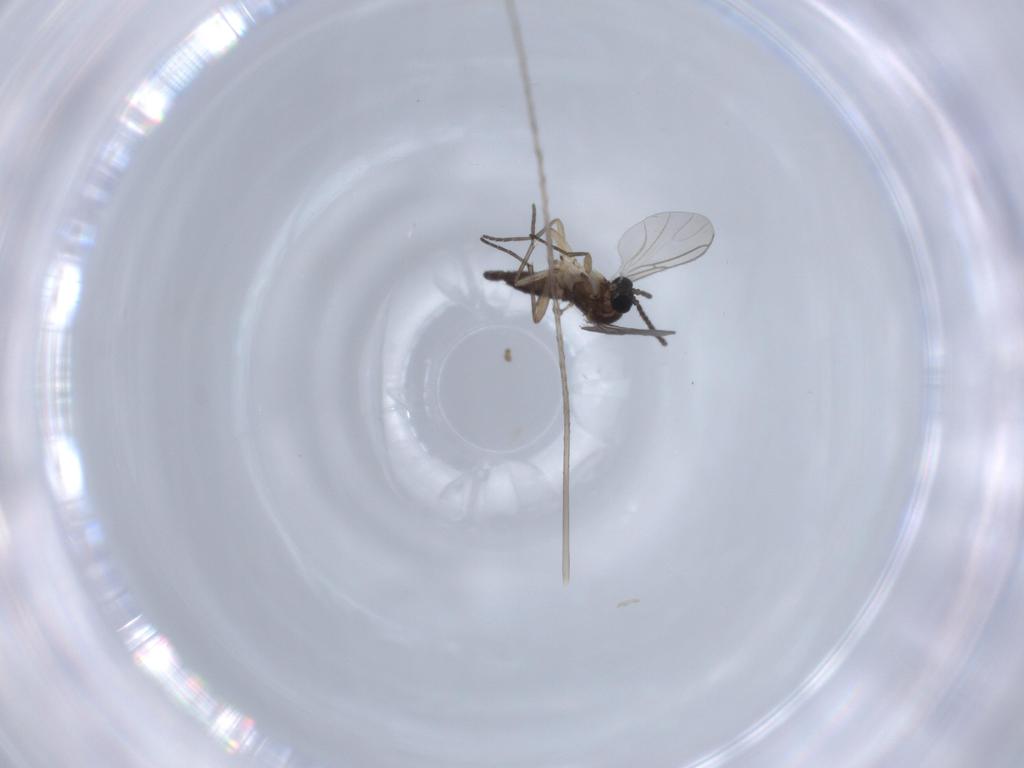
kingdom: Animalia
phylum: Arthropoda
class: Insecta
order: Diptera
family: Sciaridae
